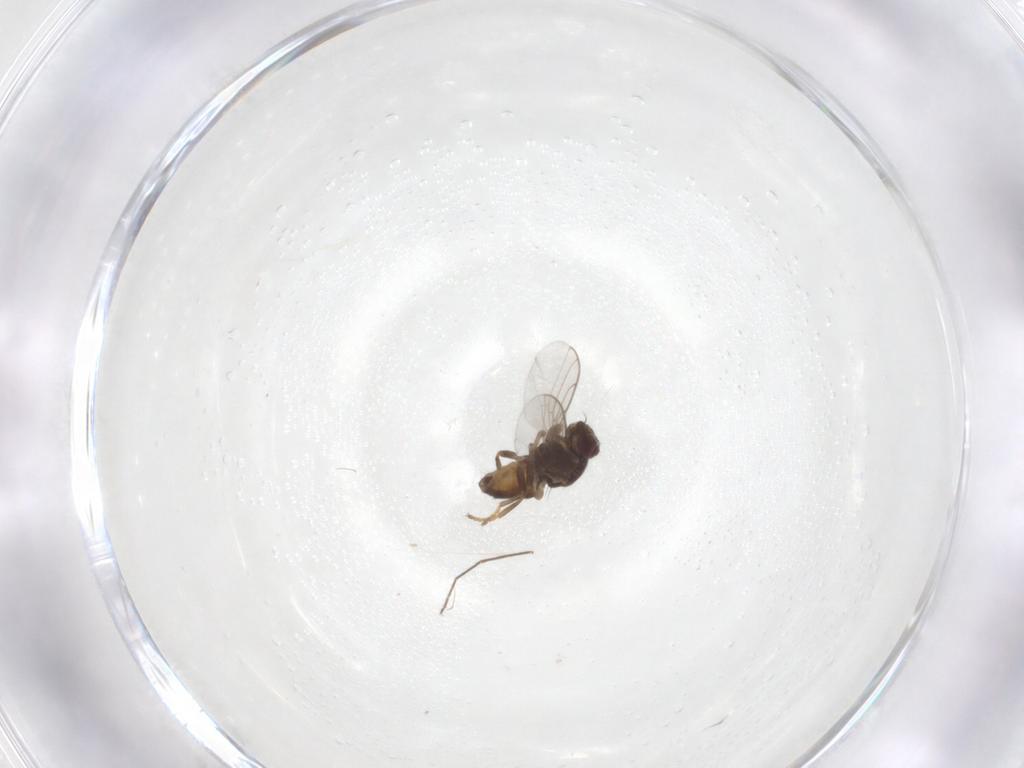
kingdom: Animalia
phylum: Arthropoda
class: Insecta
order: Diptera
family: Chloropidae
